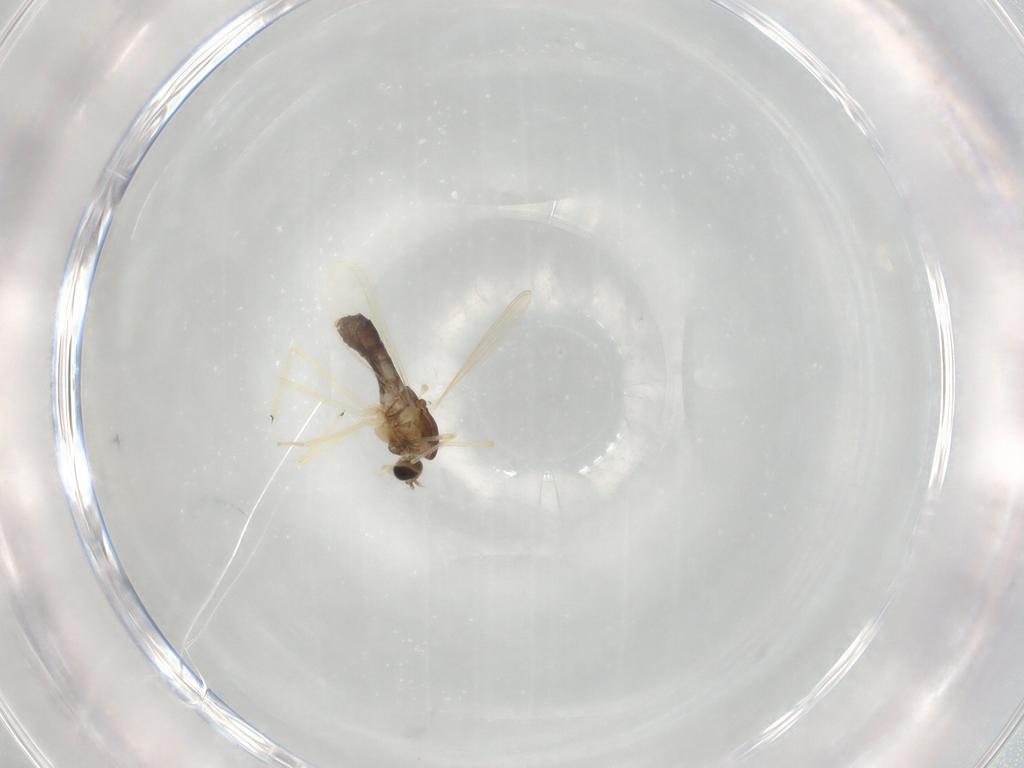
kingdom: Animalia
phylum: Arthropoda
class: Insecta
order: Diptera
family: Chironomidae
